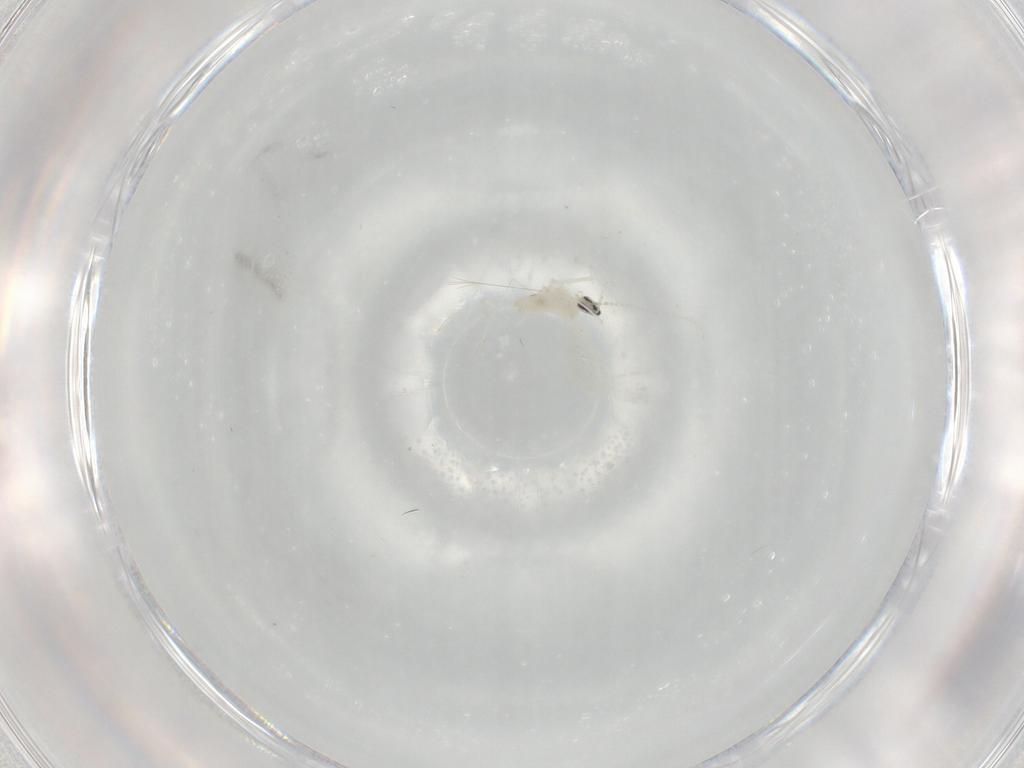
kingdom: Animalia
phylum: Arthropoda
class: Insecta
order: Diptera
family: Cecidomyiidae
